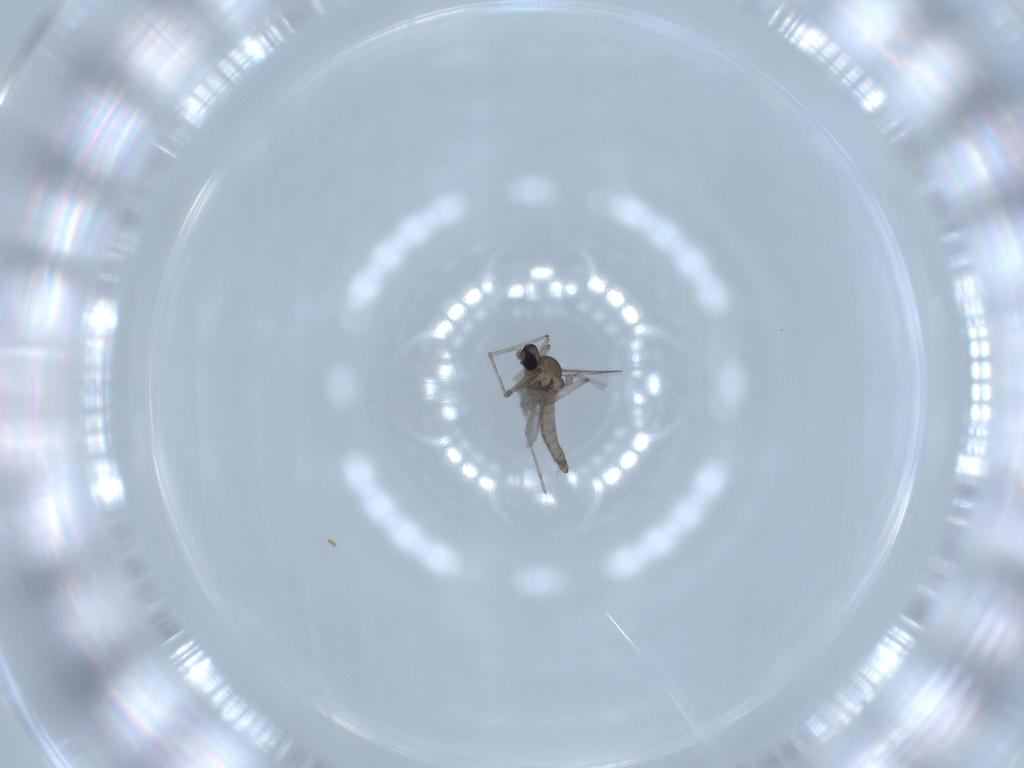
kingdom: Animalia
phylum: Arthropoda
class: Insecta
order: Diptera
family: Cecidomyiidae
